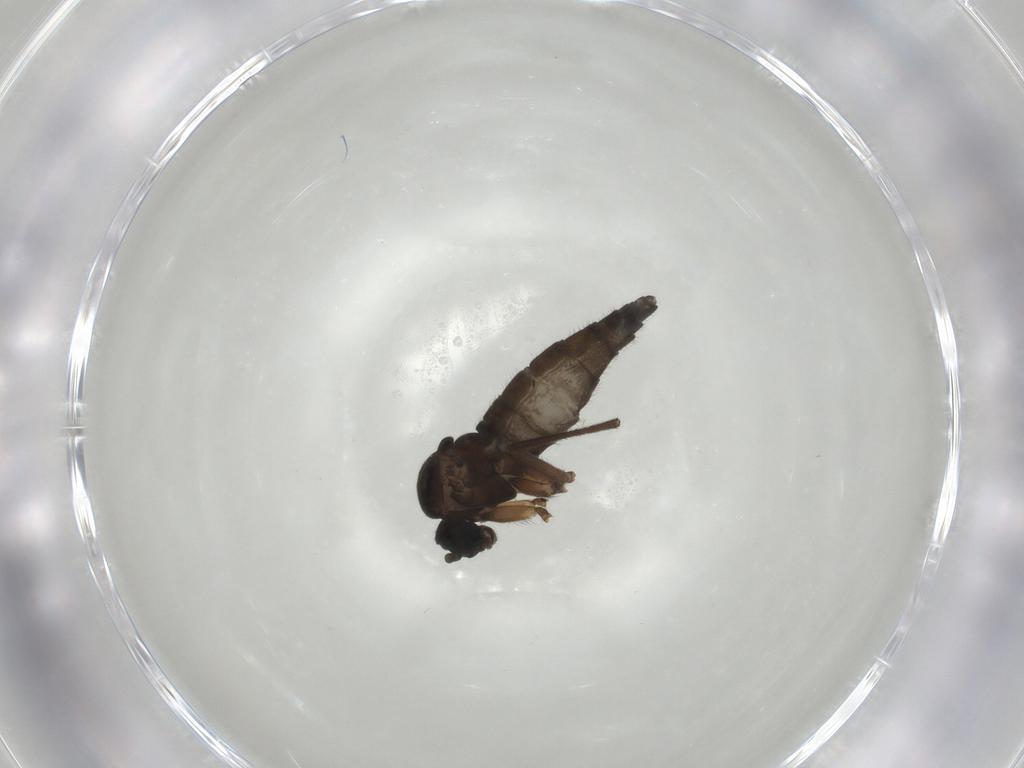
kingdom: Animalia
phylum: Arthropoda
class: Insecta
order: Diptera
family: Sciaridae
